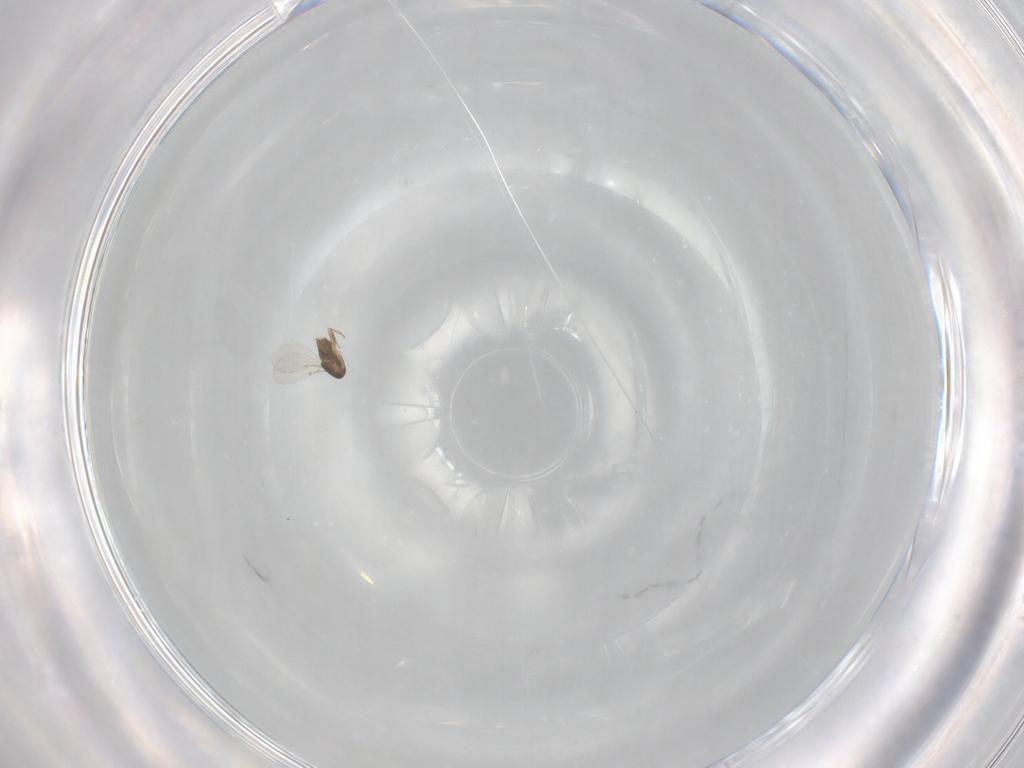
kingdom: Animalia
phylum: Arthropoda
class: Insecta
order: Hymenoptera
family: Encyrtidae
